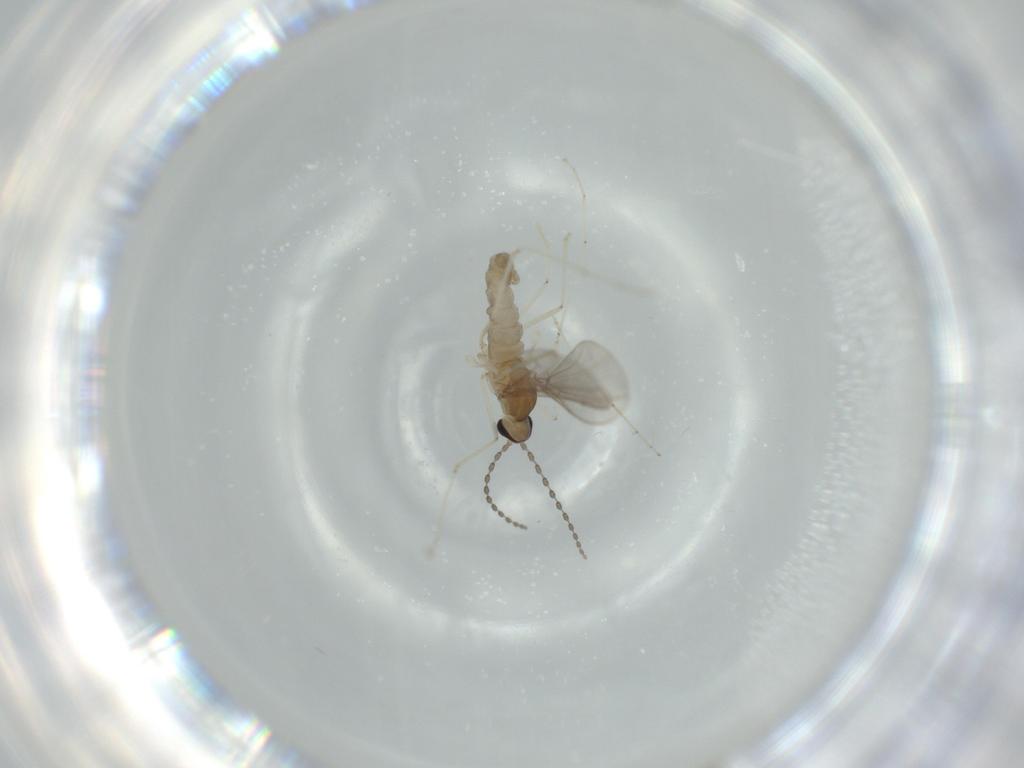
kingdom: Animalia
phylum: Arthropoda
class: Insecta
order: Diptera
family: Cecidomyiidae
